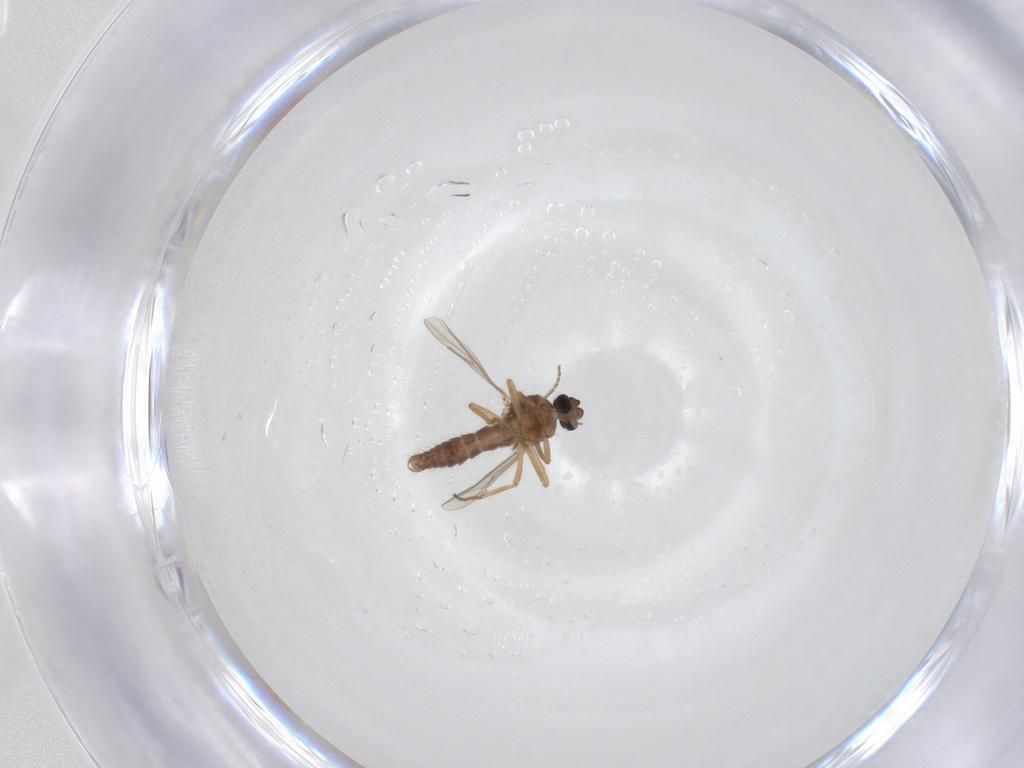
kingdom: Animalia
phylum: Arthropoda
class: Insecta
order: Diptera
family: Ceratopogonidae
